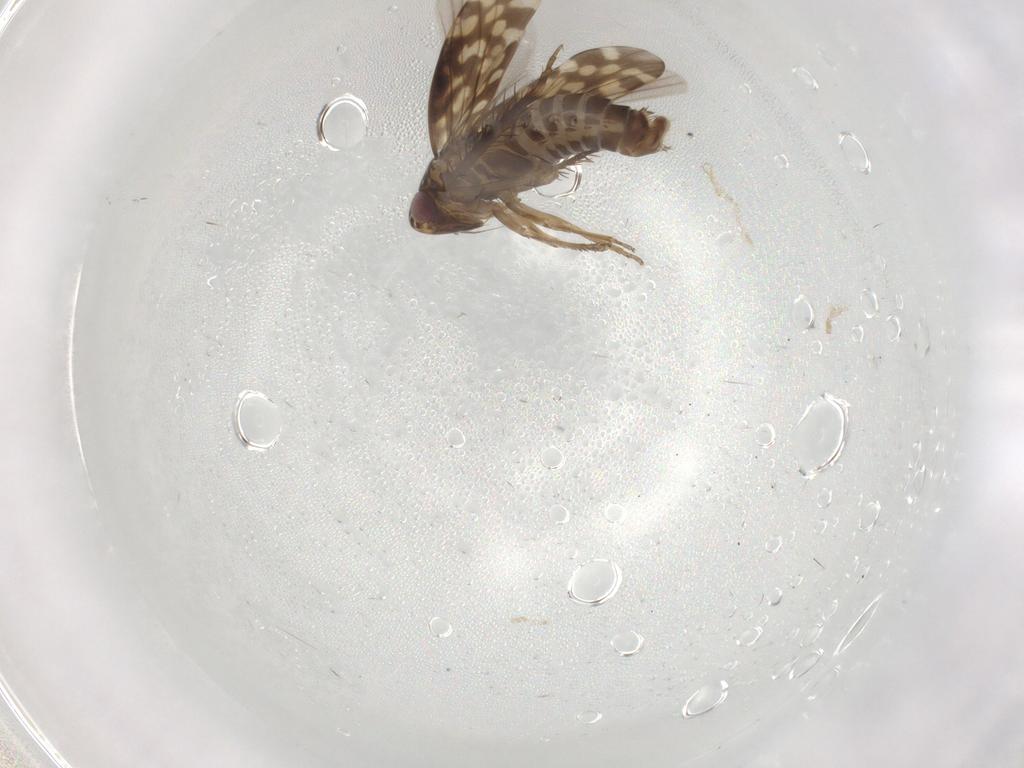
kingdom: Animalia
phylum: Arthropoda
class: Insecta
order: Hemiptera
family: Cicadellidae
